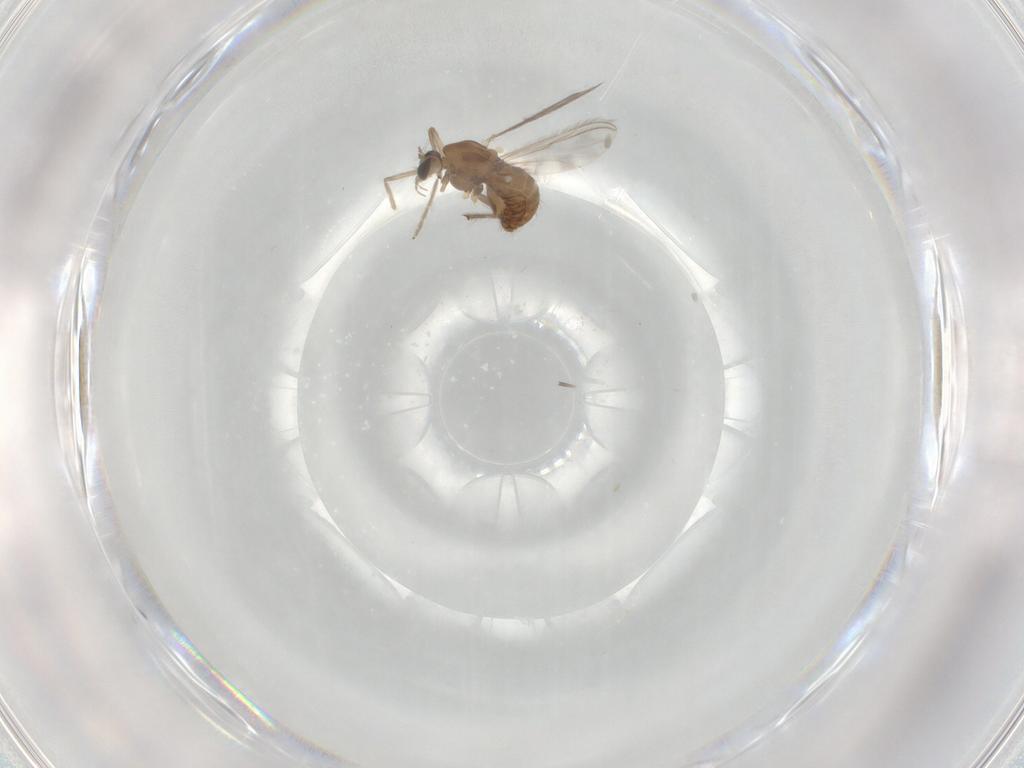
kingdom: Animalia
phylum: Arthropoda
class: Insecta
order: Diptera
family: Chironomidae
